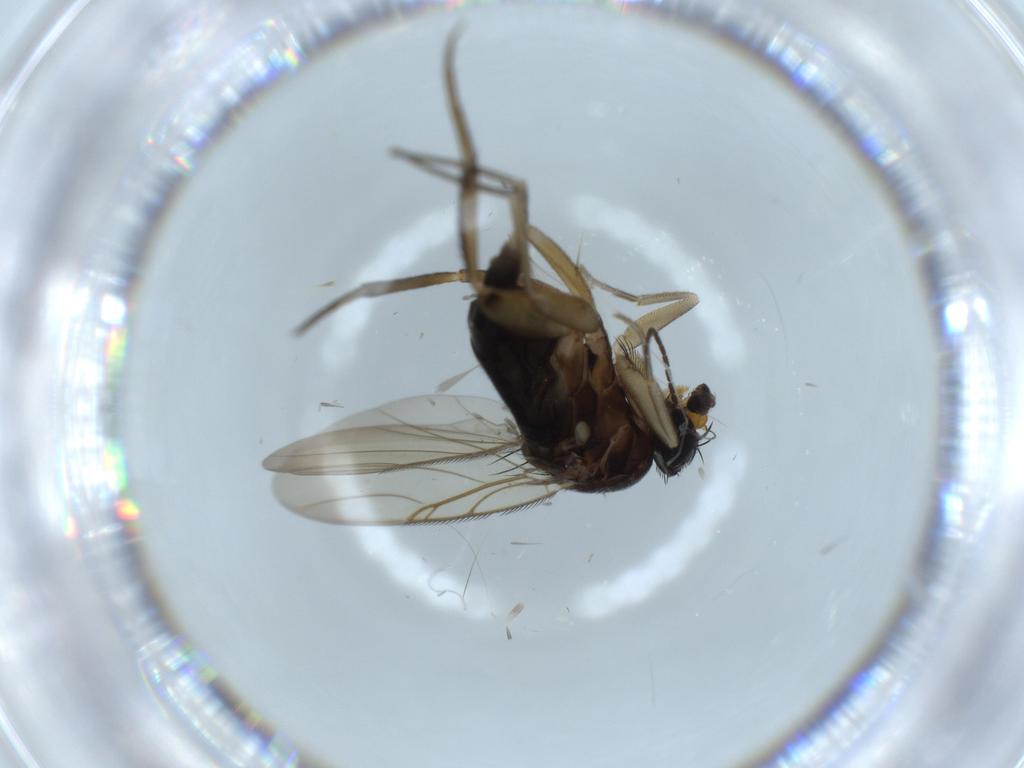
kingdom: Animalia
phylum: Arthropoda
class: Insecta
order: Diptera
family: Phoridae
